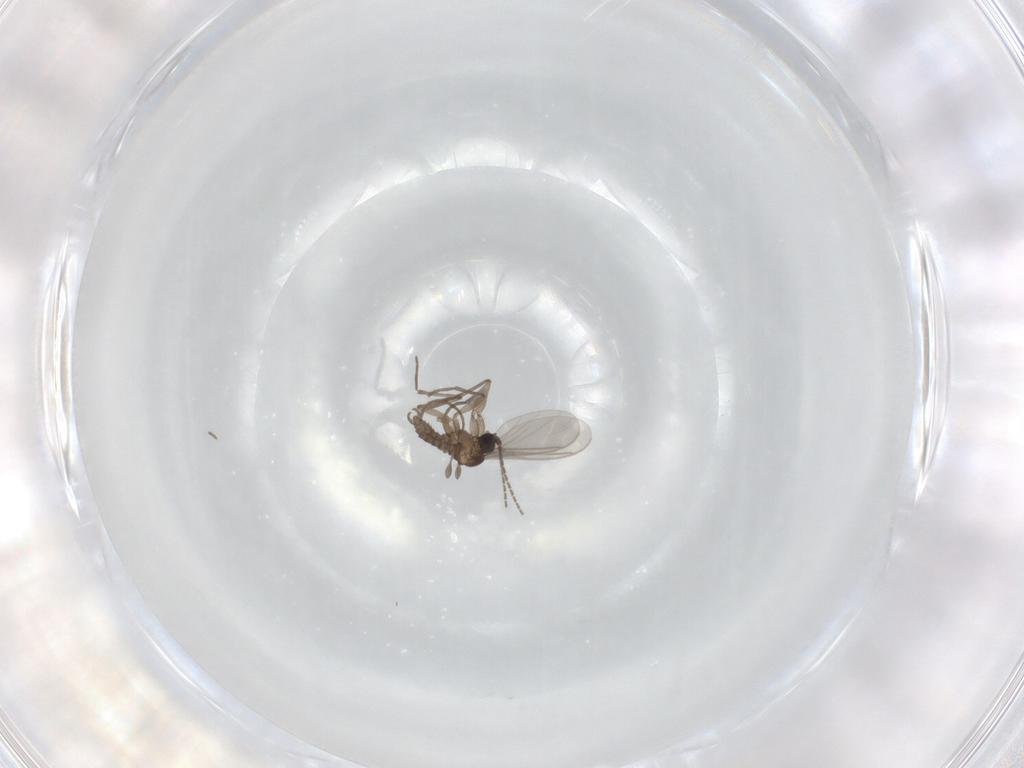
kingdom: Animalia
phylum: Arthropoda
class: Insecta
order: Diptera
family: Sciaridae
